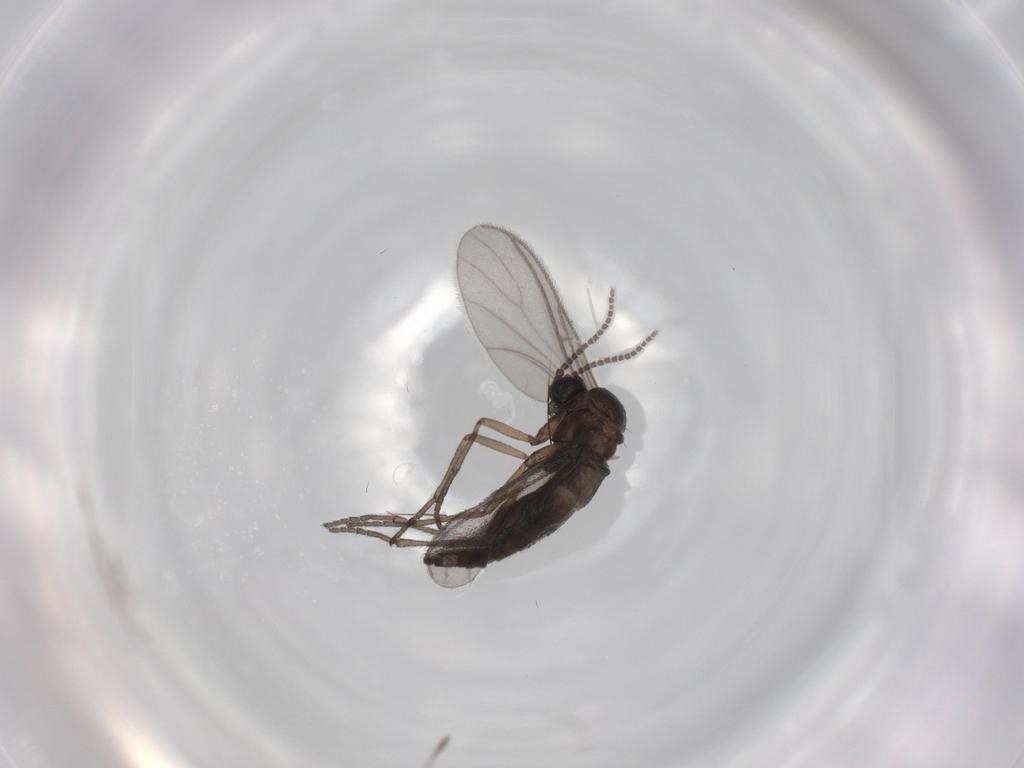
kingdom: Animalia
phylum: Arthropoda
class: Insecta
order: Diptera
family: Sciaridae
